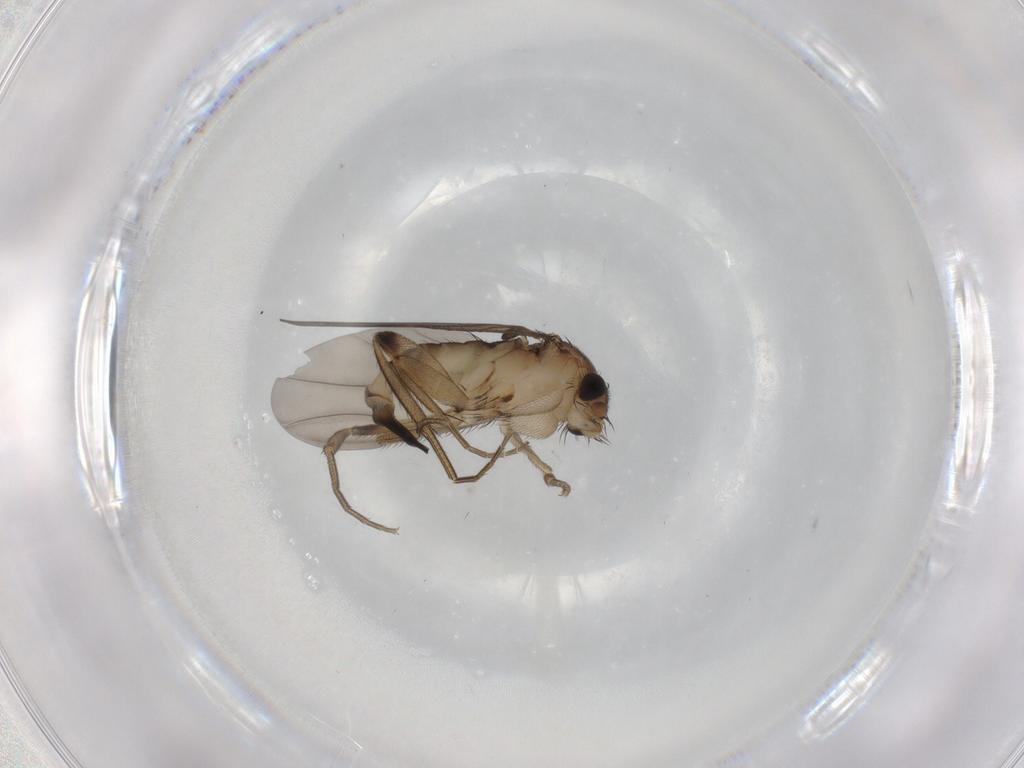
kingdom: Animalia
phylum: Arthropoda
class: Insecta
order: Diptera
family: Phoridae
